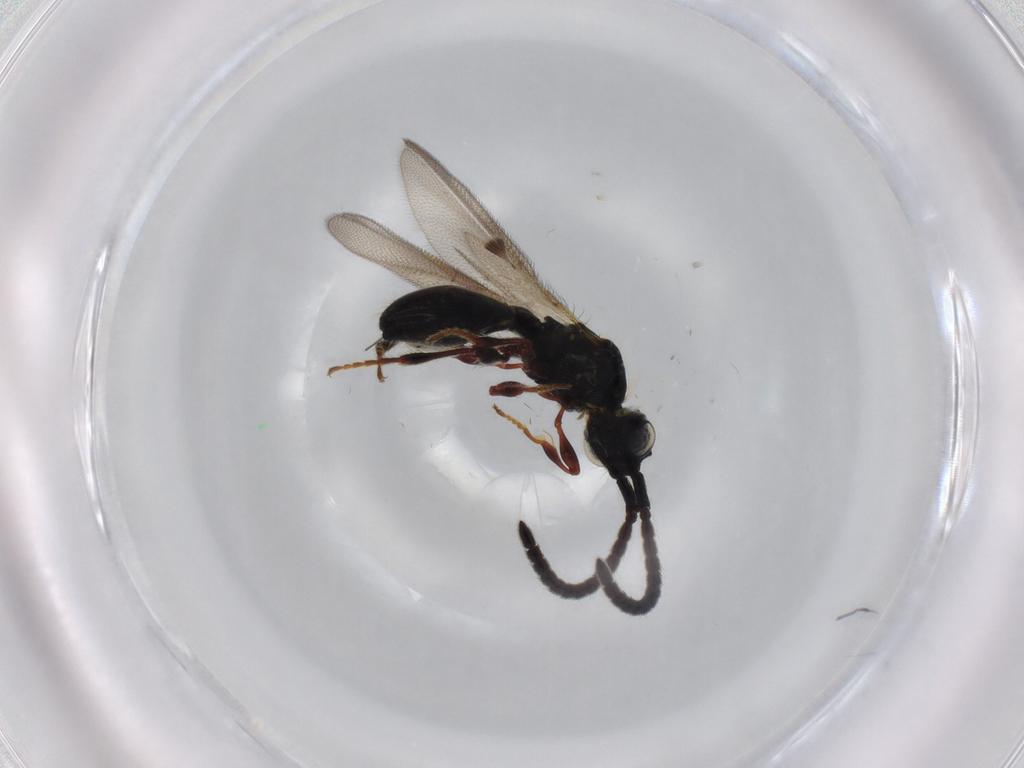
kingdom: Animalia
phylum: Arthropoda
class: Insecta
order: Hymenoptera
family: Diapriidae
